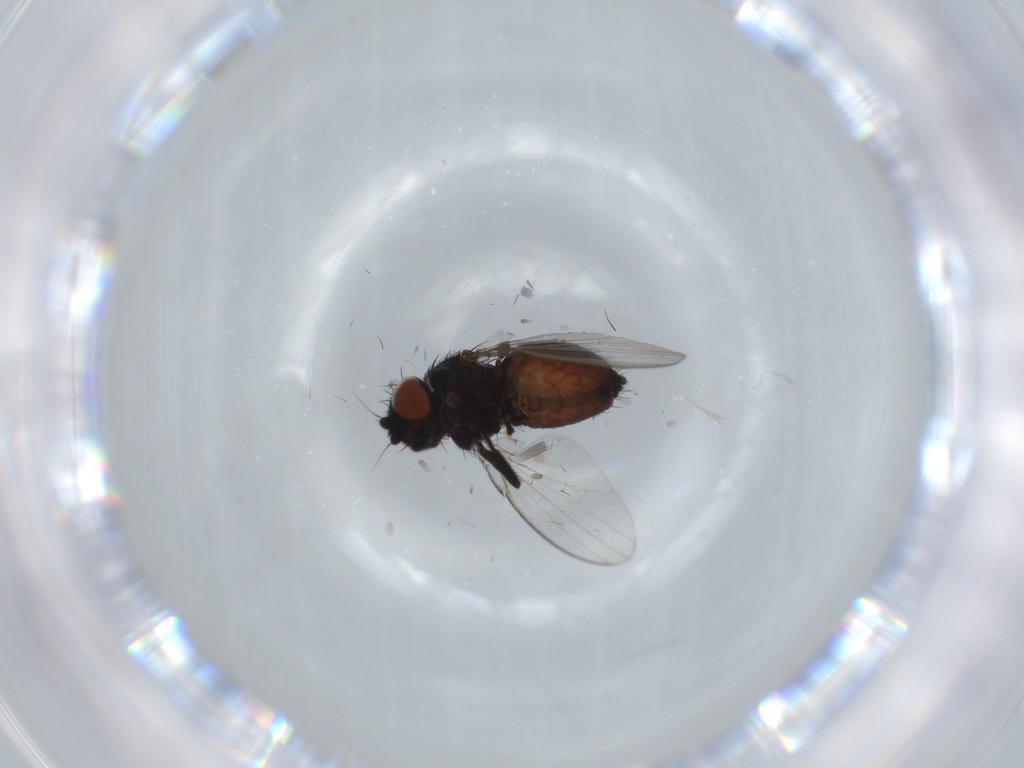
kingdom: Animalia
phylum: Arthropoda
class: Insecta
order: Diptera
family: Milichiidae
